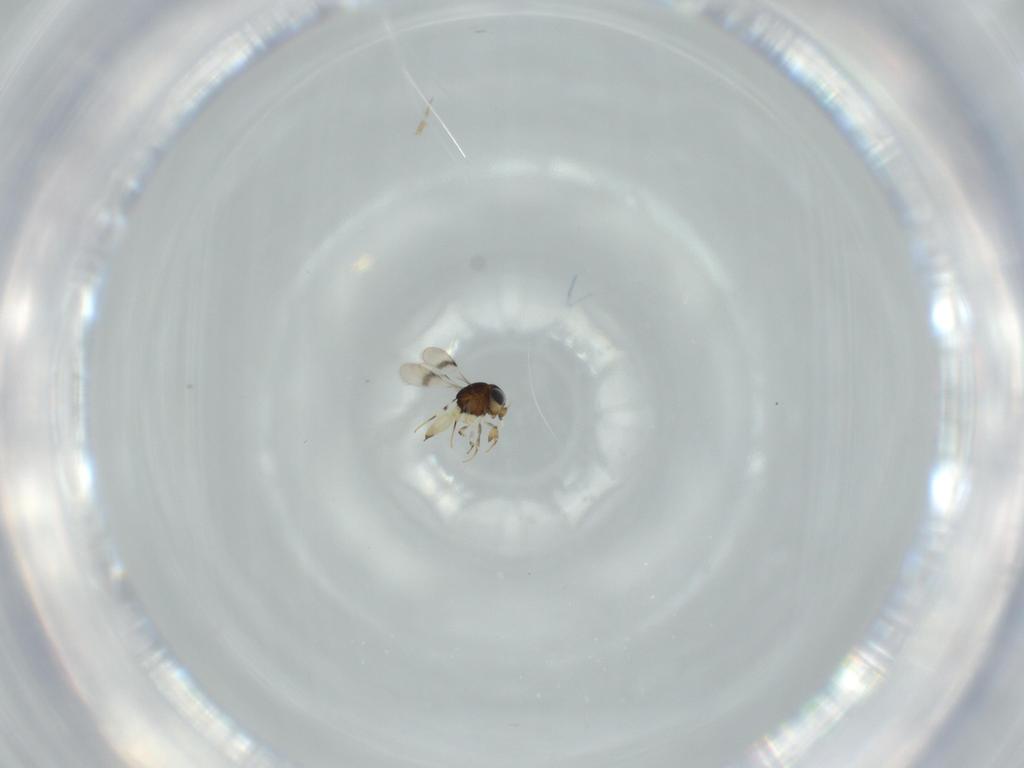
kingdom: Animalia
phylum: Arthropoda
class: Insecta
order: Hymenoptera
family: Scelionidae
